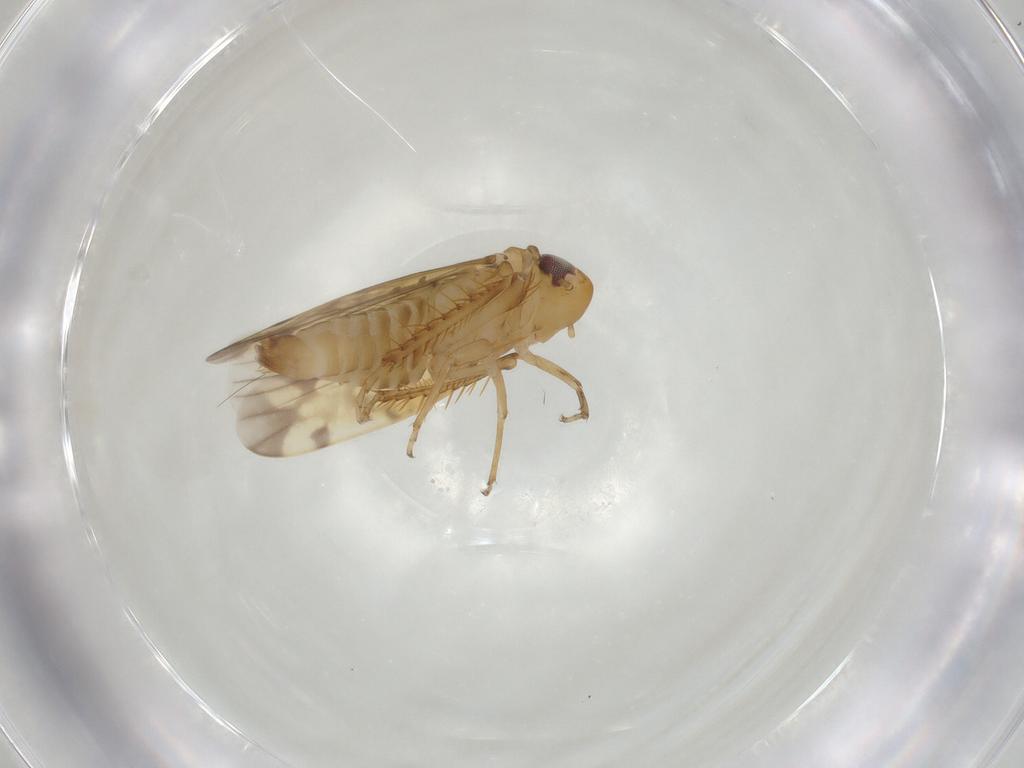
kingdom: Animalia
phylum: Arthropoda
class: Insecta
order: Hemiptera
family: Cicadellidae
